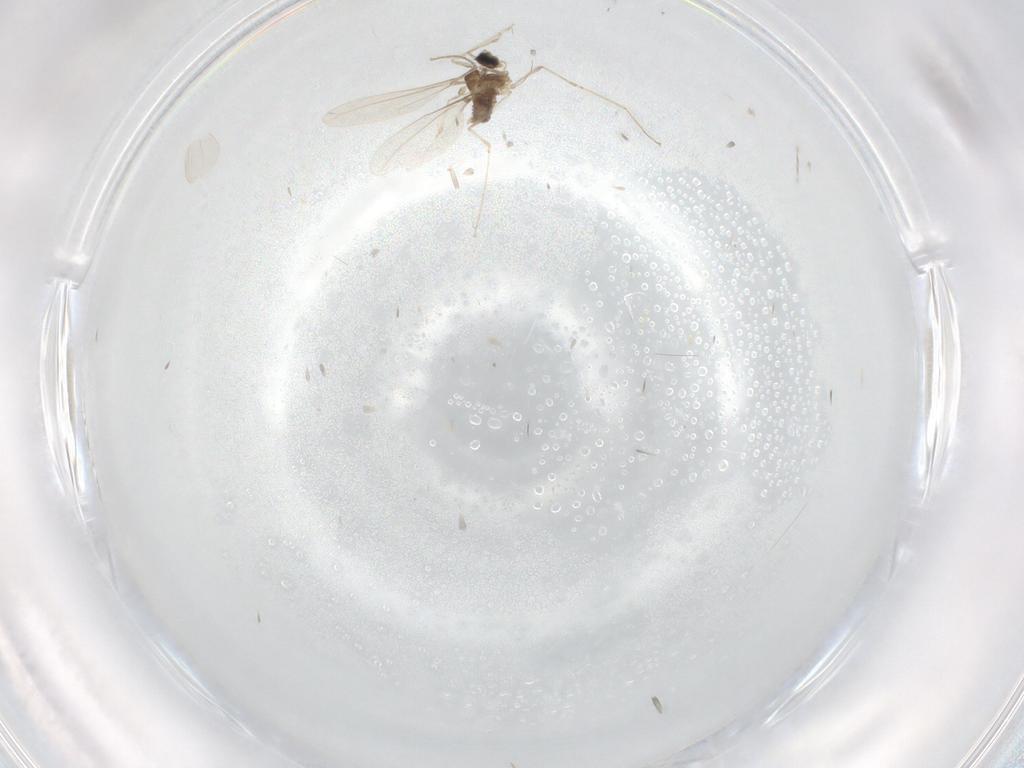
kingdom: Animalia
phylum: Arthropoda
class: Insecta
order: Diptera
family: Cecidomyiidae
